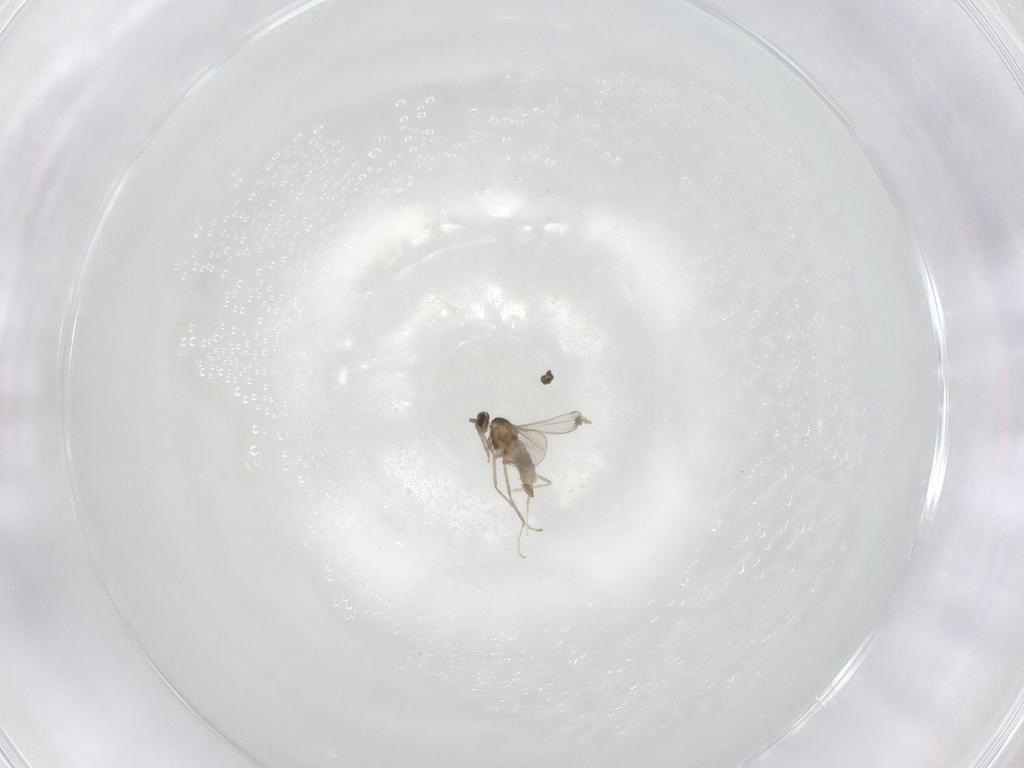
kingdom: Animalia
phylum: Arthropoda
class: Insecta
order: Diptera
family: Cecidomyiidae
